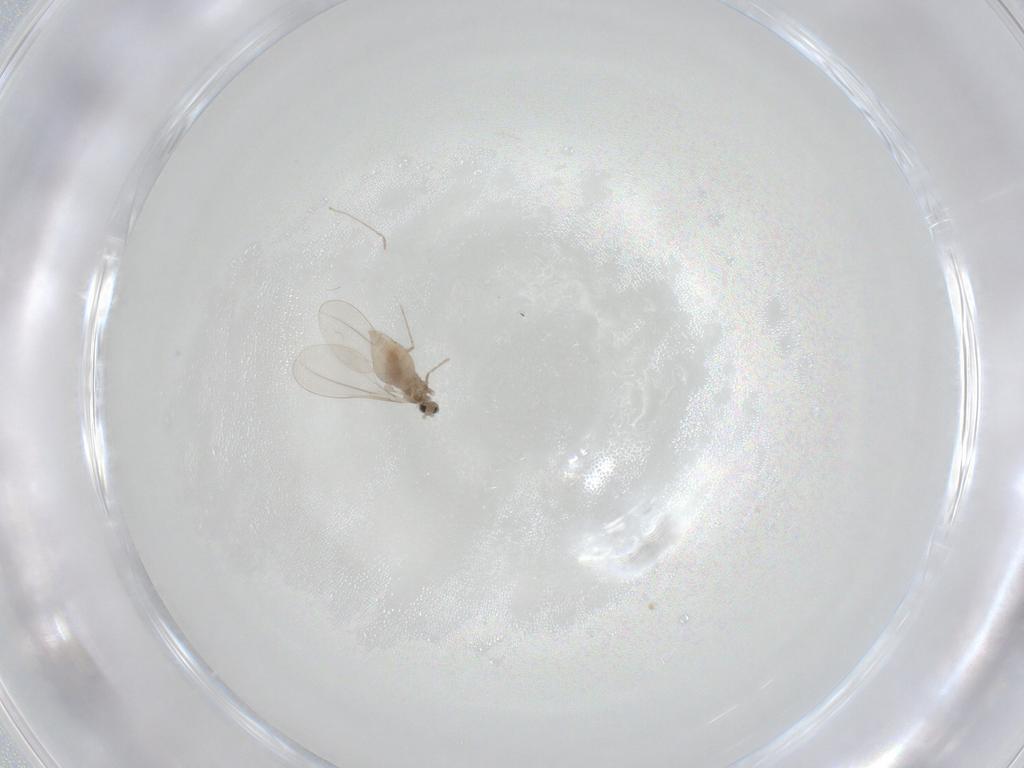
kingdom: Animalia
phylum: Arthropoda
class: Insecta
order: Diptera
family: Cecidomyiidae
